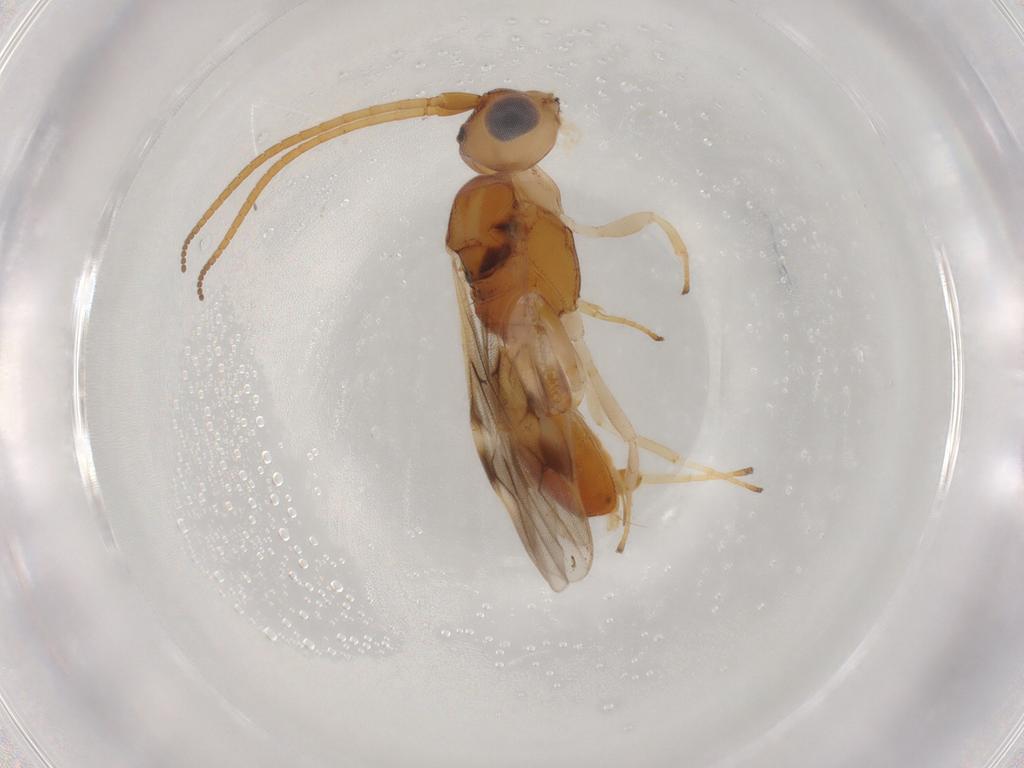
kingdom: Animalia
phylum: Arthropoda
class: Insecta
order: Hymenoptera
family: Braconidae
